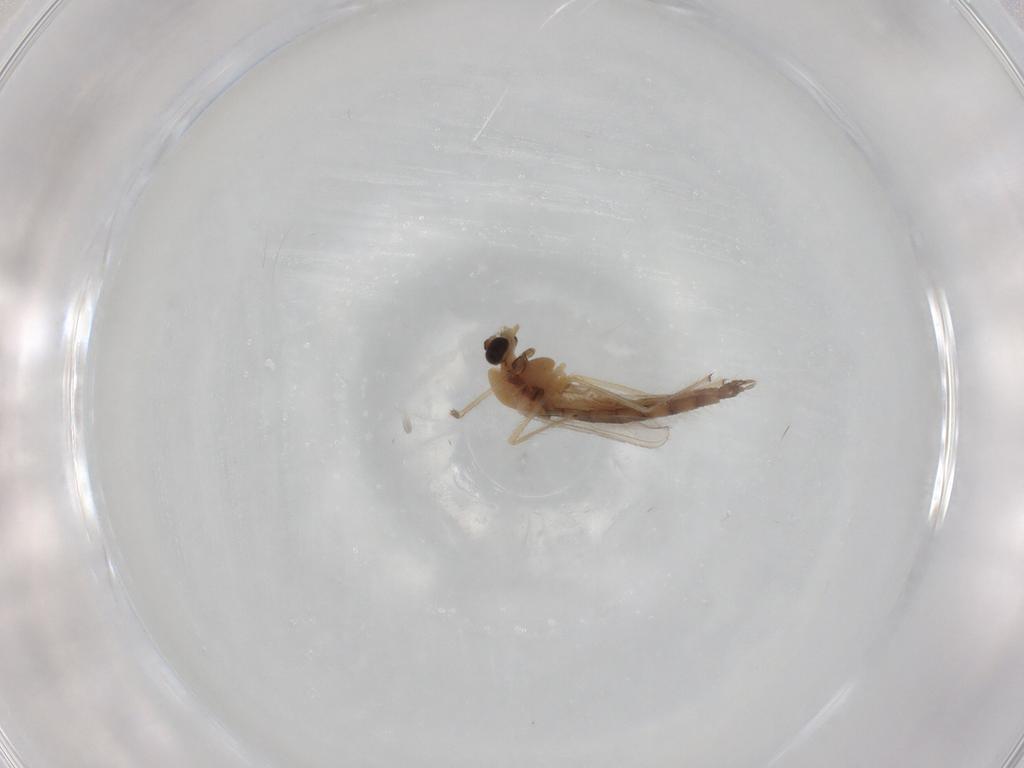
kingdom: Animalia
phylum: Arthropoda
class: Insecta
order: Diptera
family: Chironomidae
